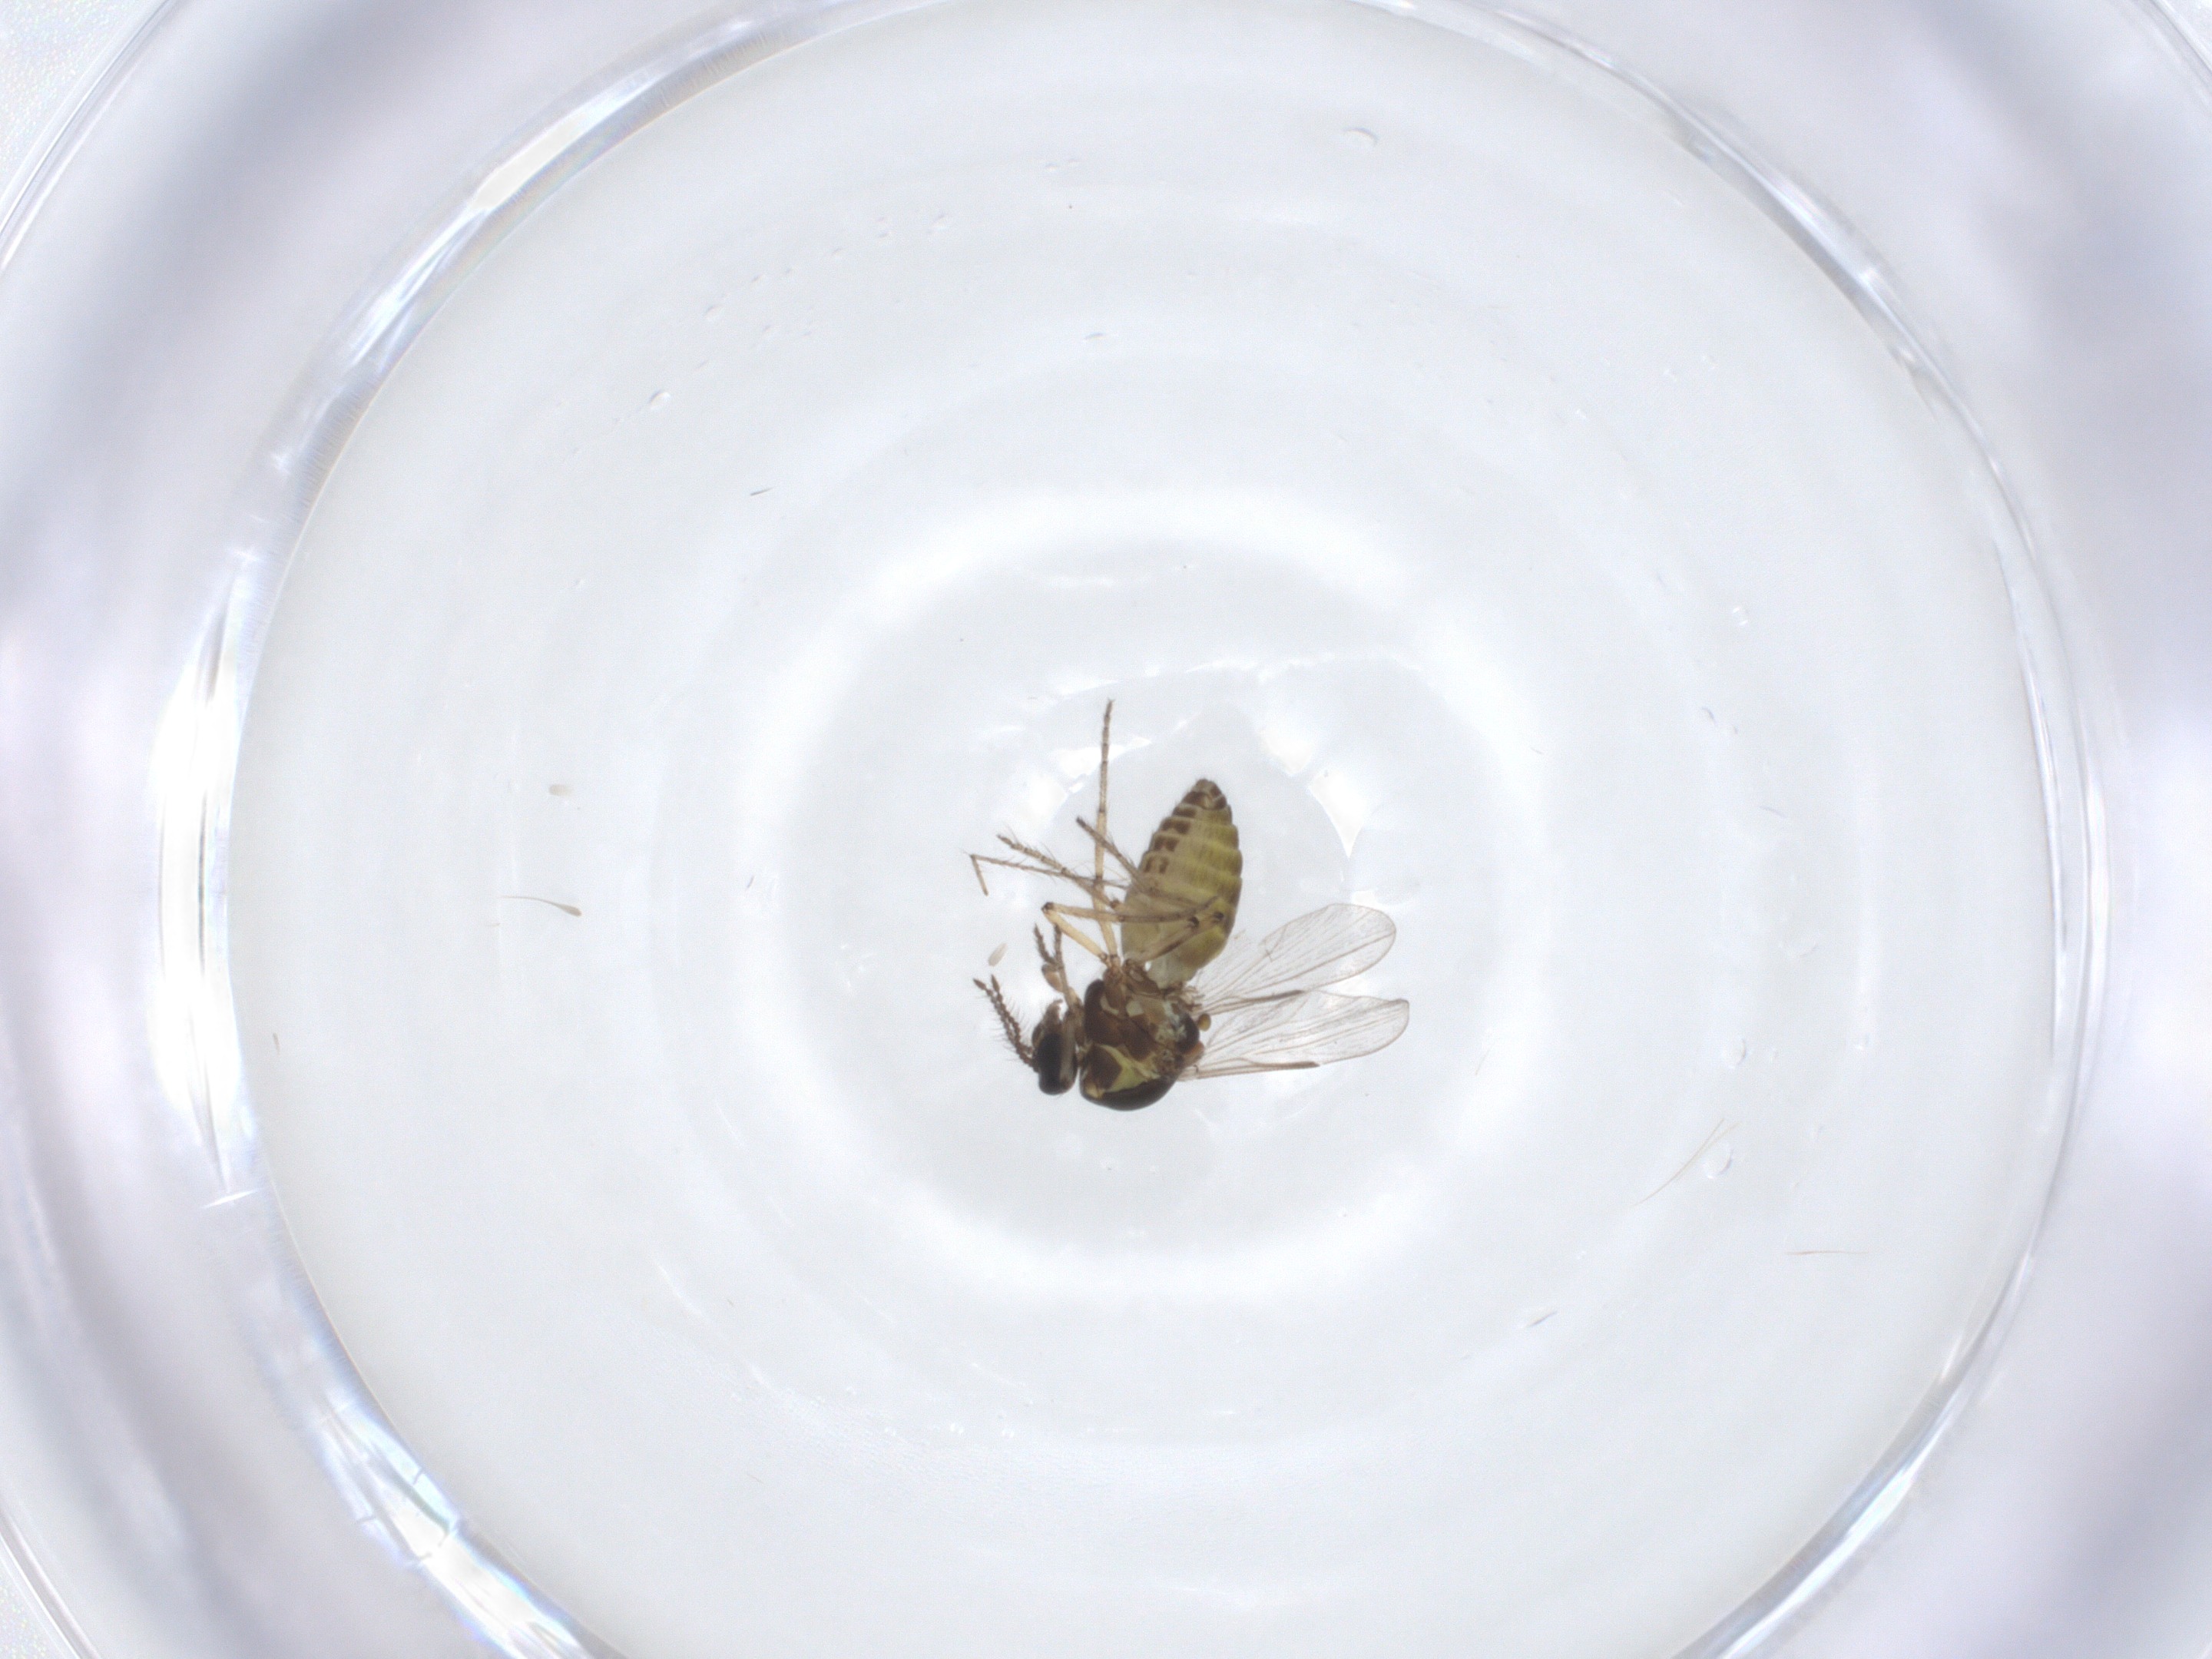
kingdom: Animalia
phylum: Arthropoda
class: Insecta
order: Diptera
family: Ceratopogonidae
